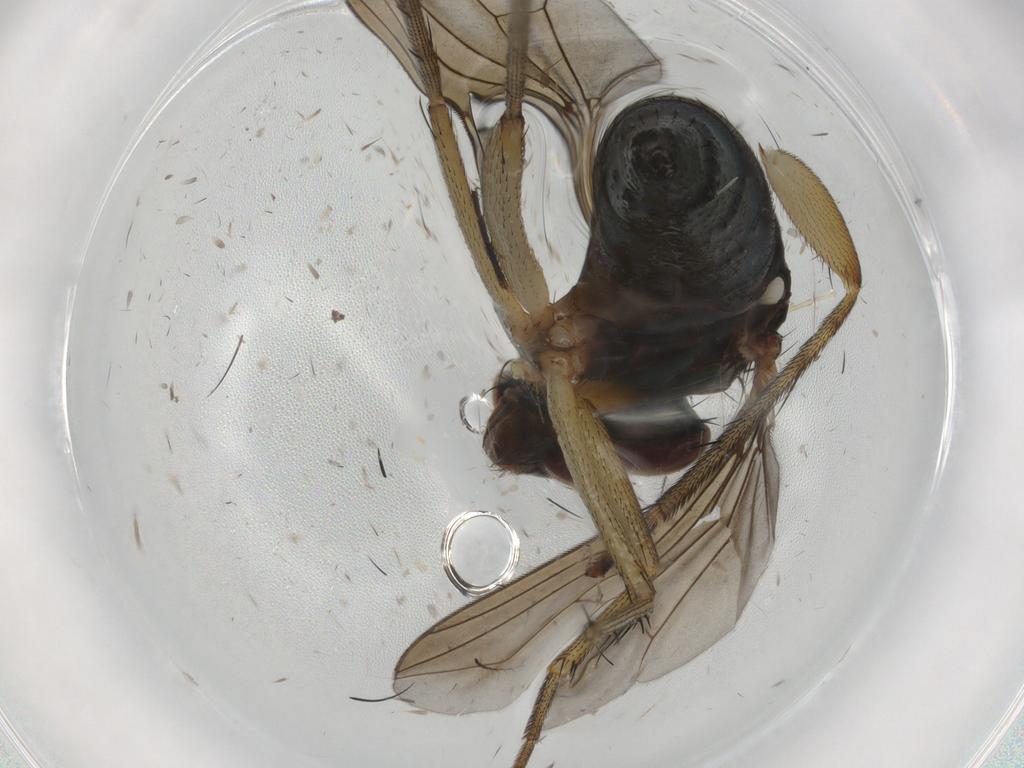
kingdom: Animalia
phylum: Arthropoda
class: Insecta
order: Diptera
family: Dolichopodidae
